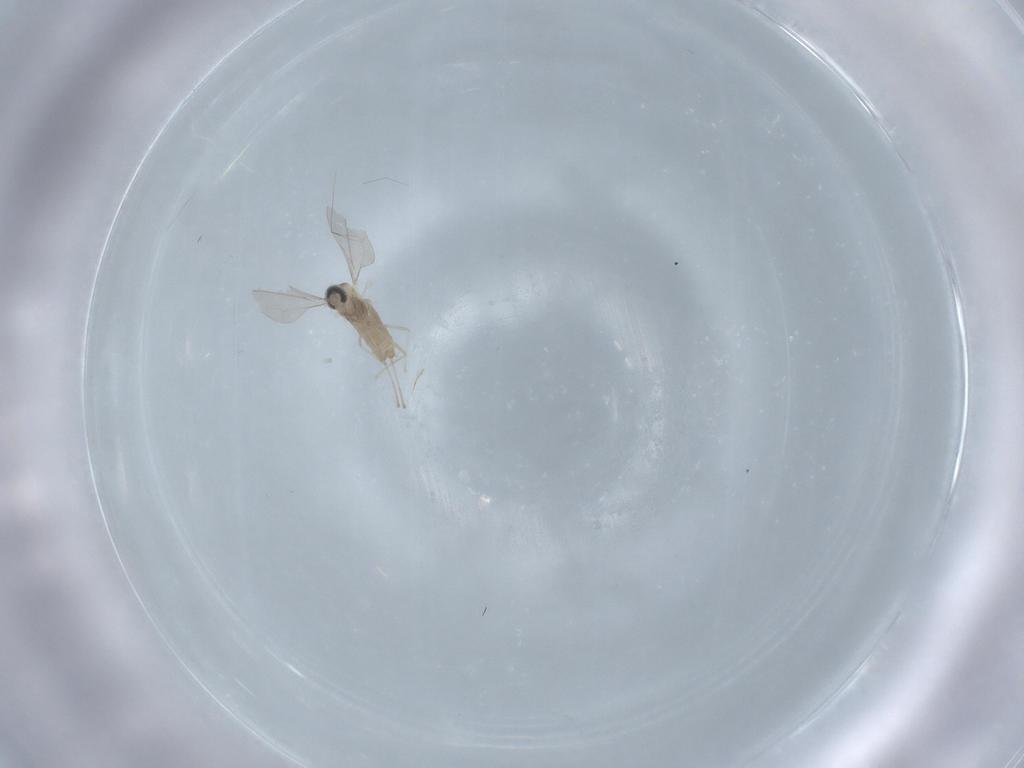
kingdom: Animalia
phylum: Arthropoda
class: Insecta
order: Diptera
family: Cecidomyiidae
